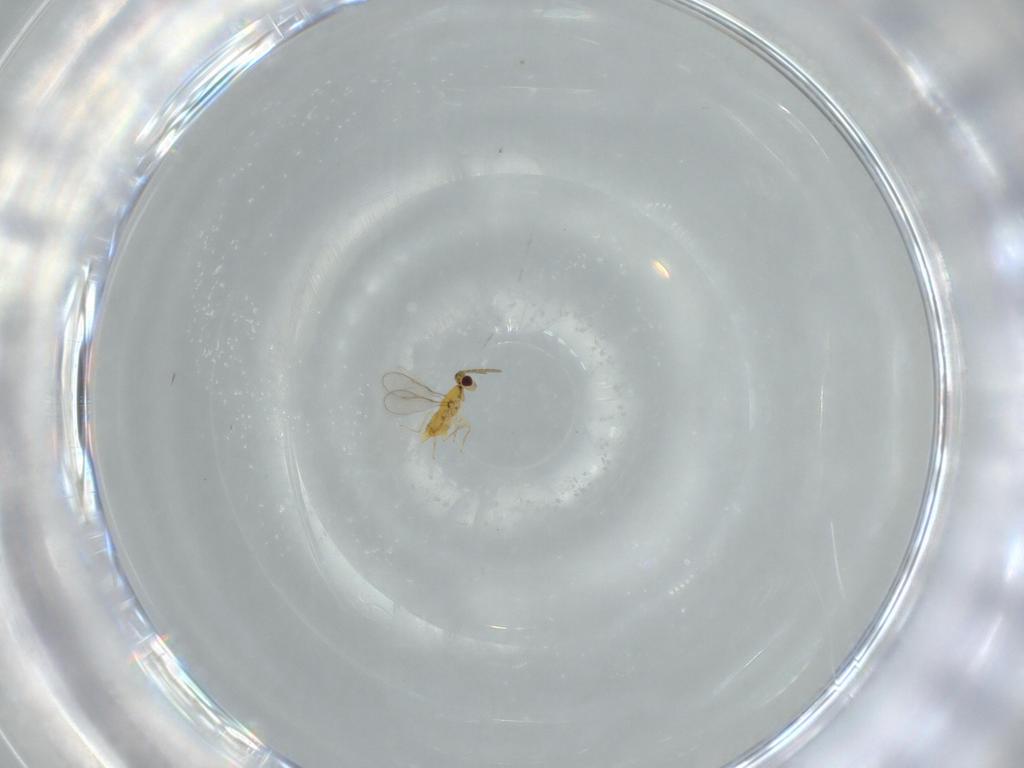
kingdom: Animalia
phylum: Arthropoda
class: Insecta
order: Hymenoptera
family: Aphelinidae
